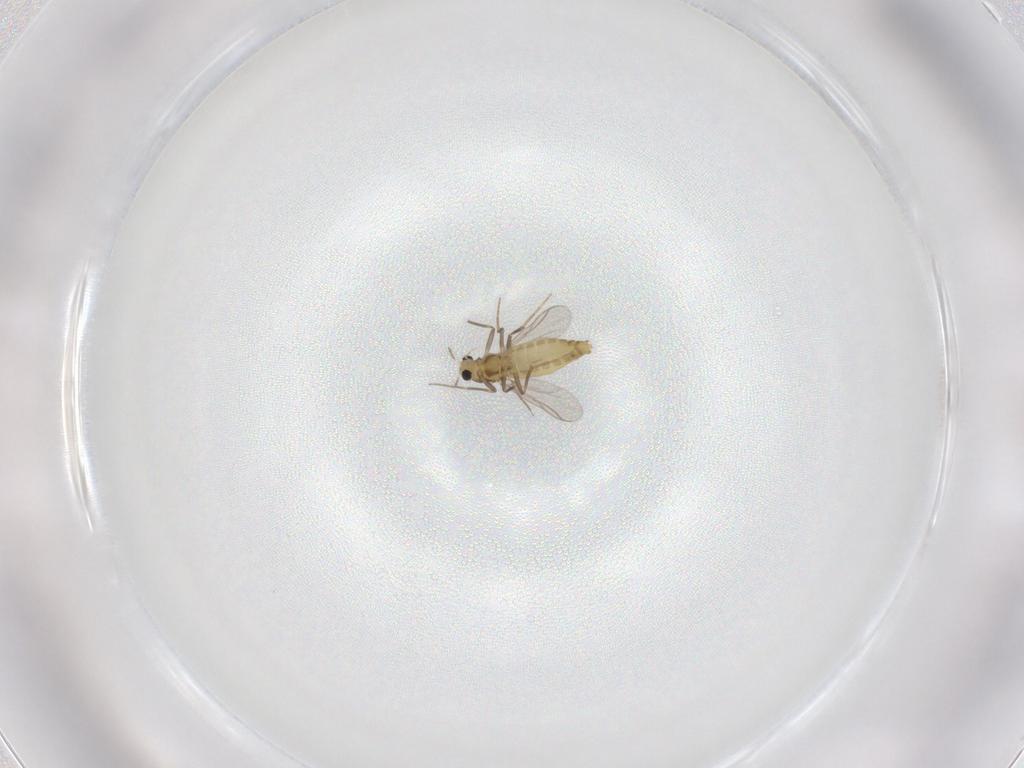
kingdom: Animalia
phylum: Arthropoda
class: Insecta
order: Diptera
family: Chironomidae
